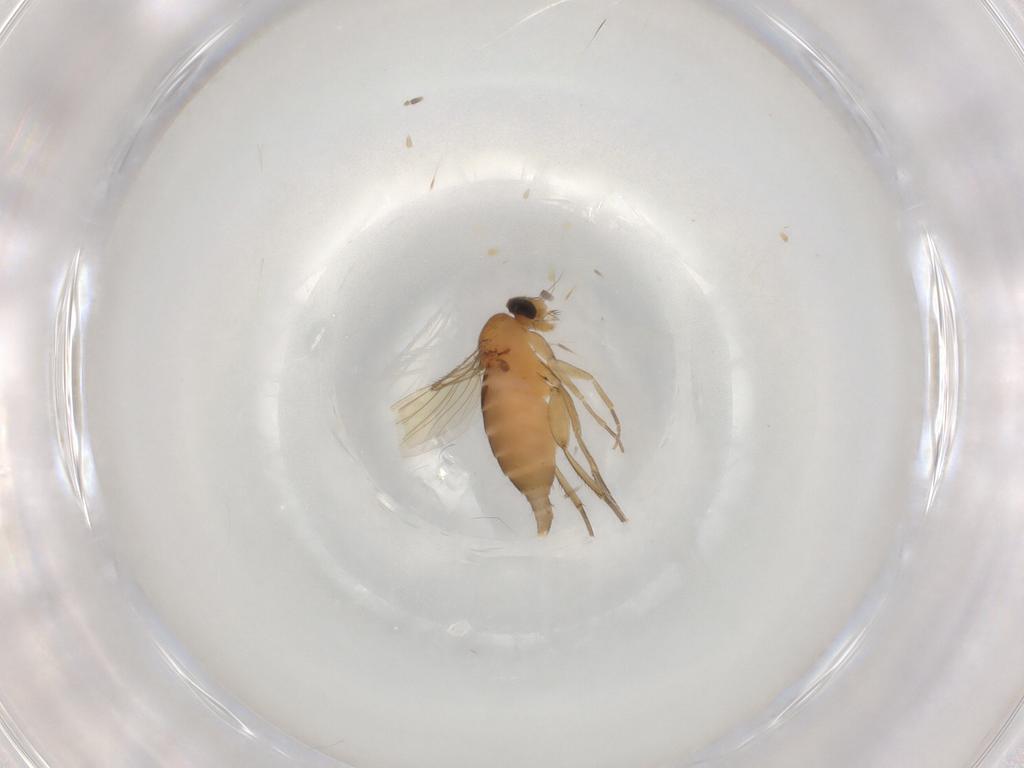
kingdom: Animalia
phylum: Arthropoda
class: Insecta
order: Diptera
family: Phoridae
